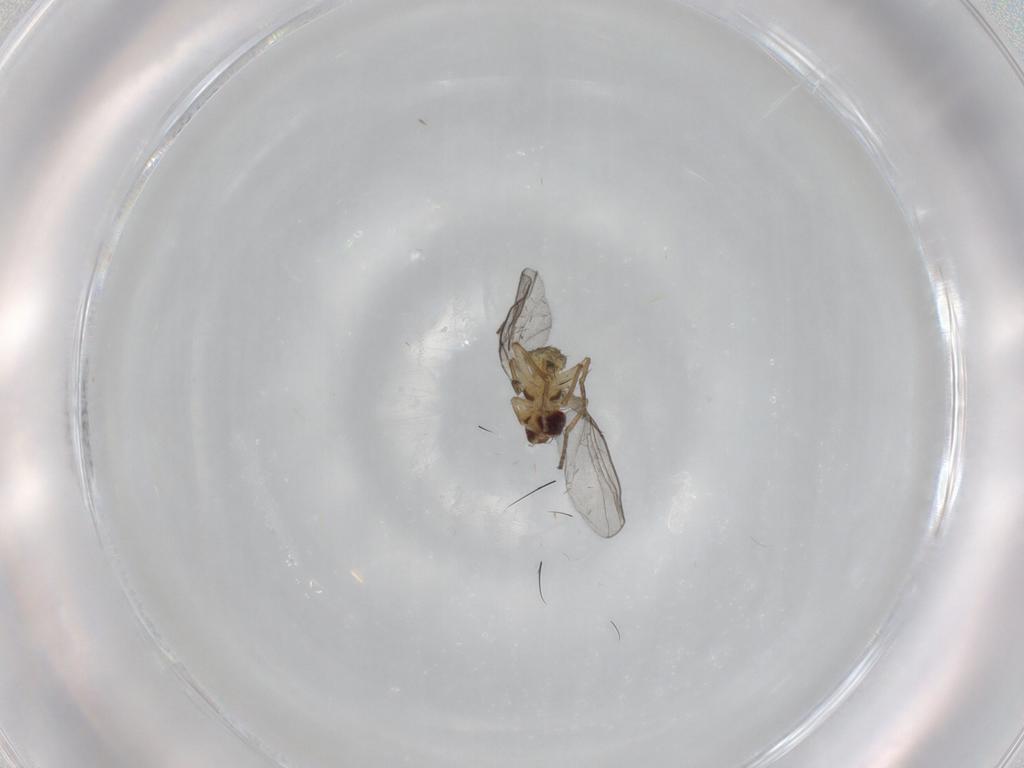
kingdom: Animalia
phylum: Arthropoda
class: Insecta
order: Diptera
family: Agromyzidae
